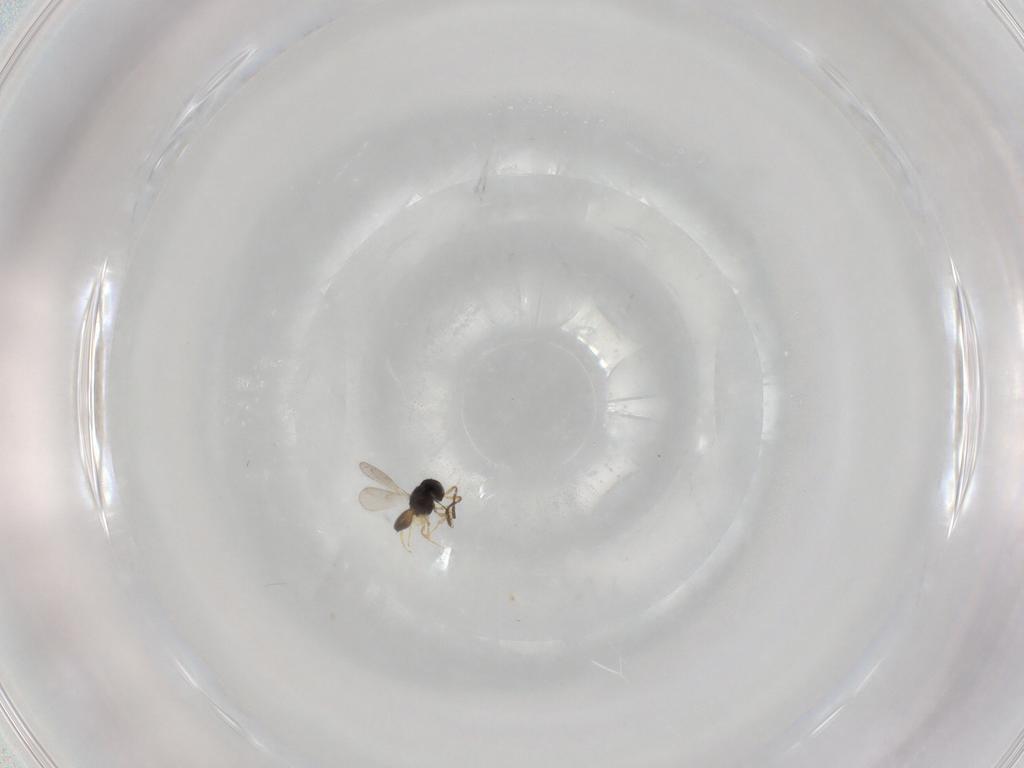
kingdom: Animalia
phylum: Arthropoda
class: Insecta
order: Hymenoptera
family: Scelionidae
